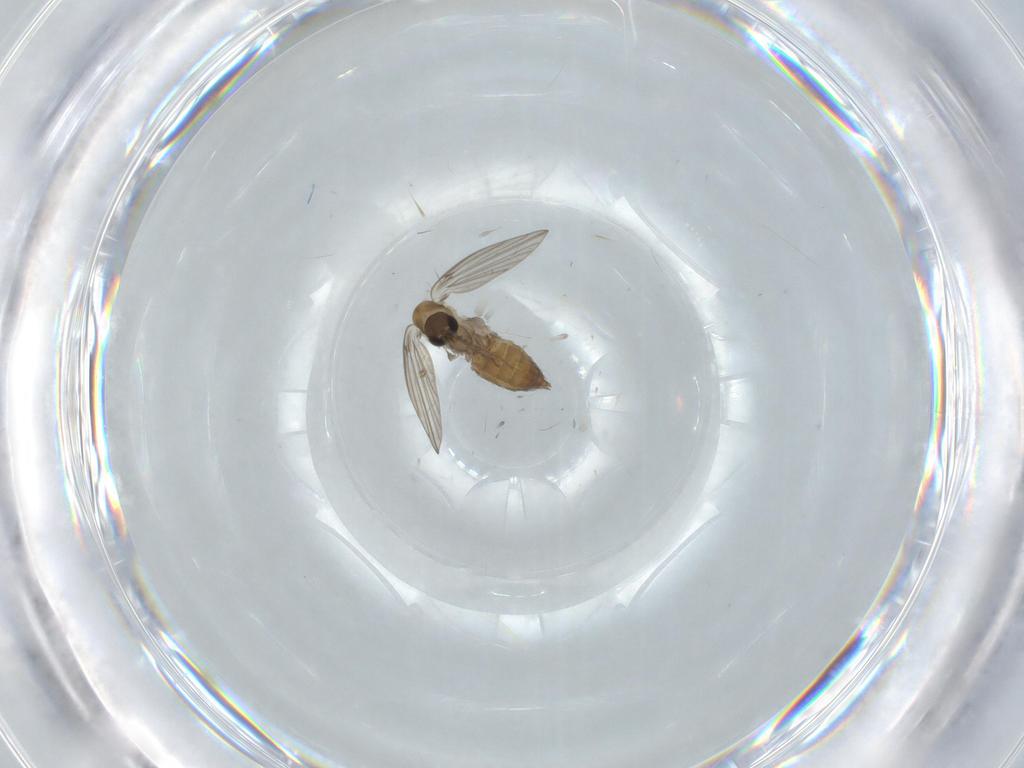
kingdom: Animalia
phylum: Arthropoda
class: Insecta
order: Diptera
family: Psychodidae
